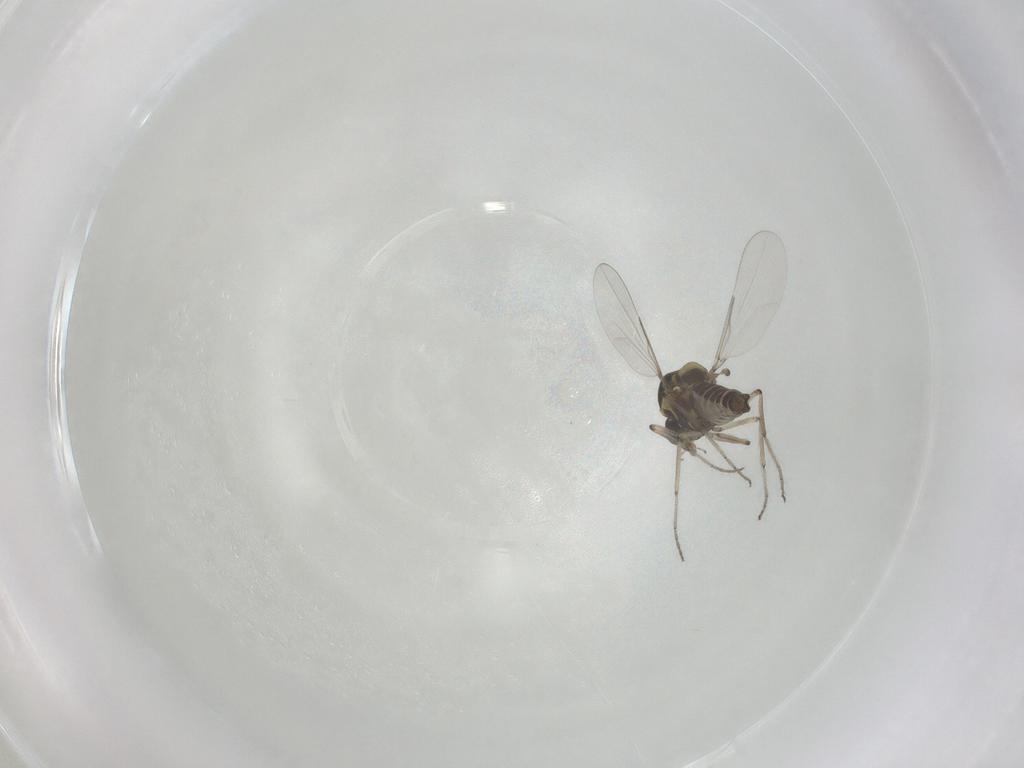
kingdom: Animalia
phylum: Arthropoda
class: Insecta
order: Diptera
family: Ceratopogonidae
